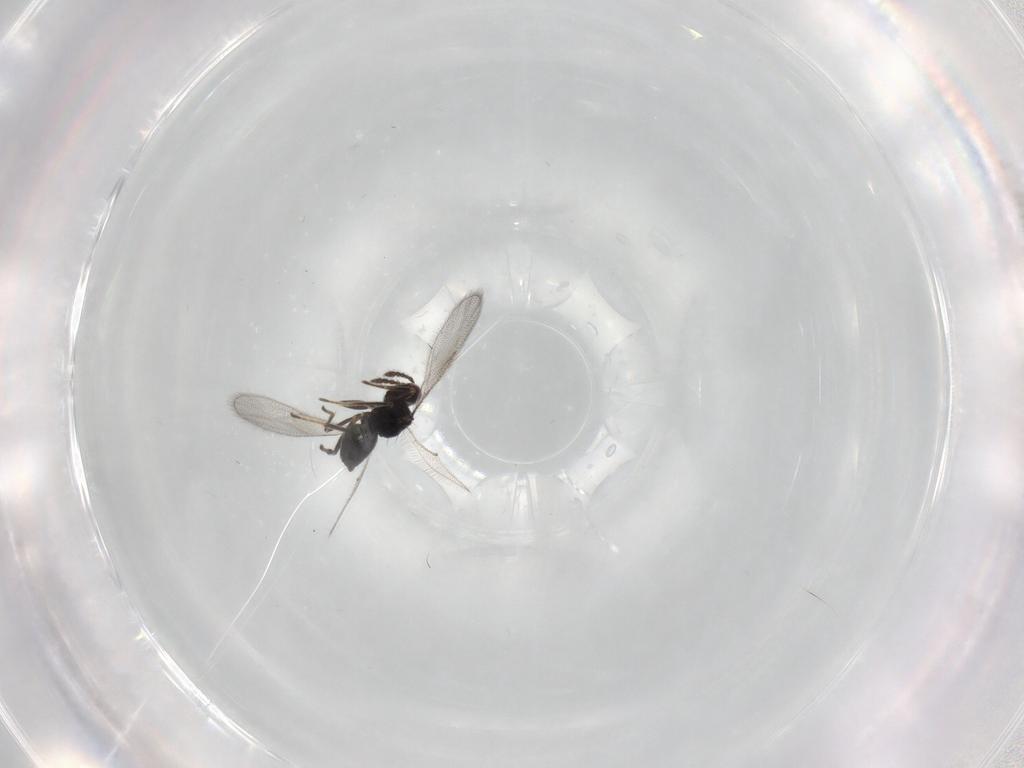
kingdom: Animalia
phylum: Arthropoda
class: Insecta
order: Hymenoptera
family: Eulophidae
